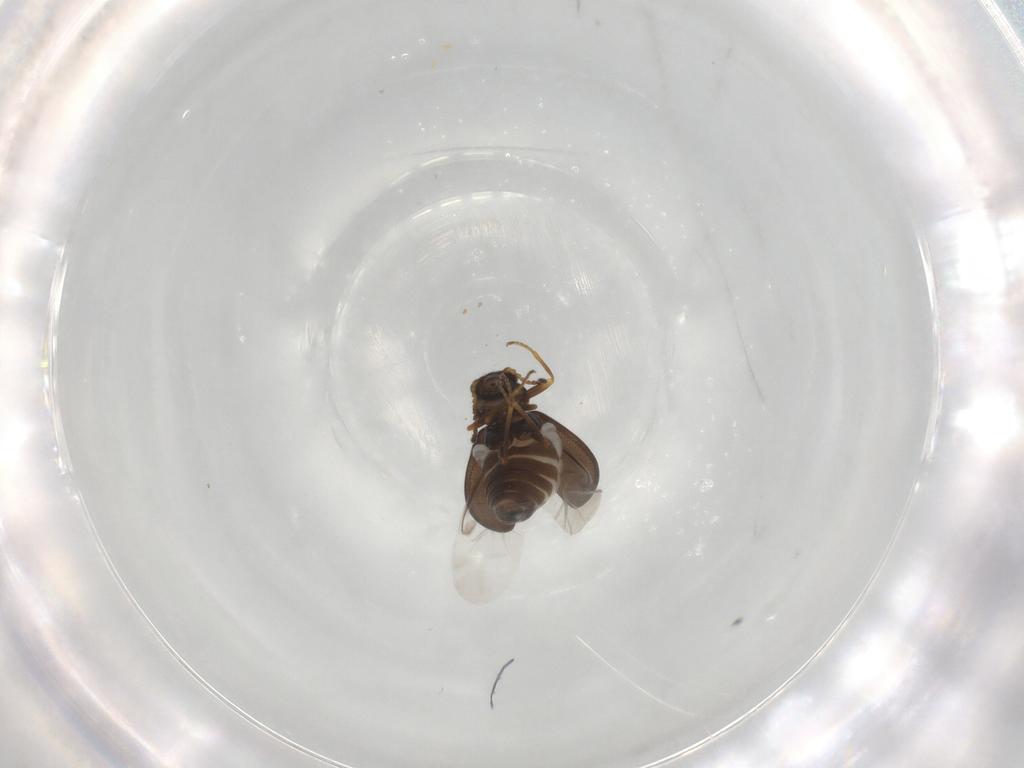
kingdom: Animalia
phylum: Arthropoda
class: Insecta
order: Coleoptera
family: Melyridae
